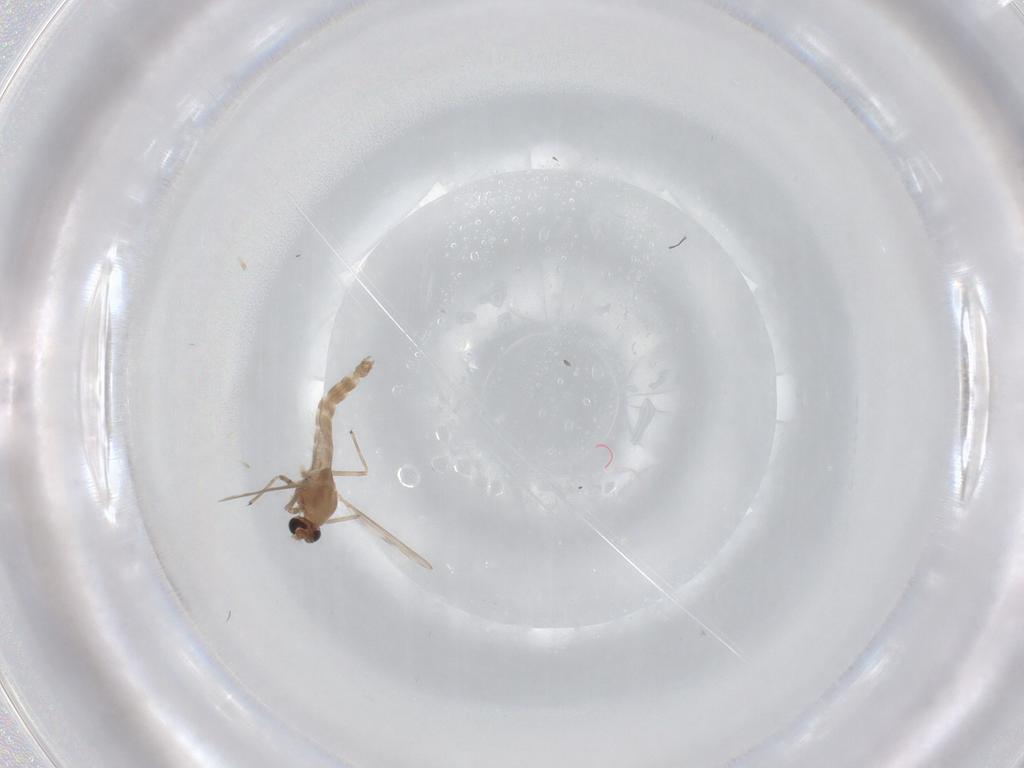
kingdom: Animalia
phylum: Arthropoda
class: Insecta
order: Diptera
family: Chironomidae
